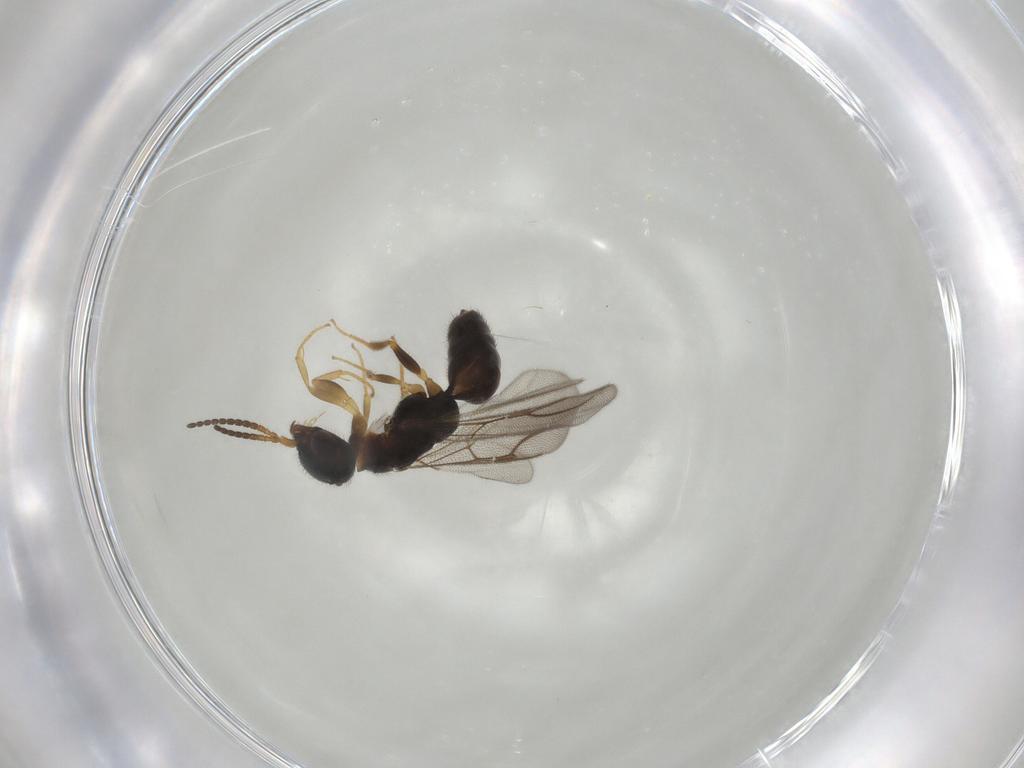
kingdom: Animalia
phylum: Arthropoda
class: Insecta
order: Hymenoptera
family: Bethylidae
